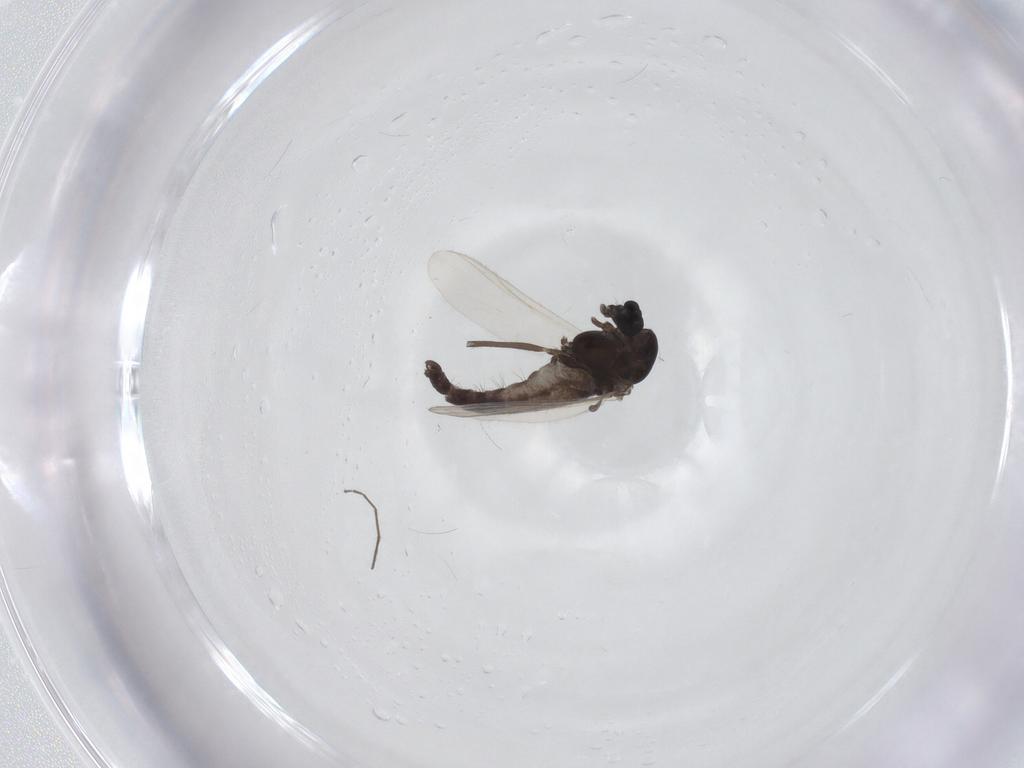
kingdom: Animalia
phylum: Arthropoda
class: Insecta
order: Diptera
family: Chironomidae
